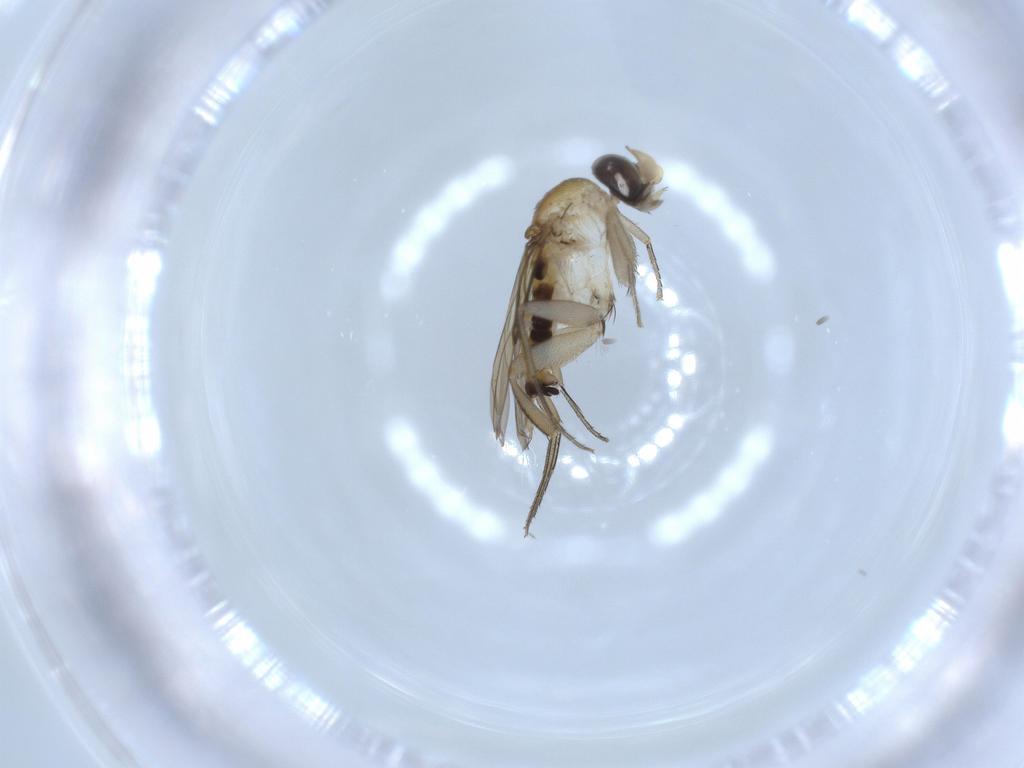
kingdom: Animalia
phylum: Arthropoda
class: Insecta
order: Diptera
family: Phoridae
